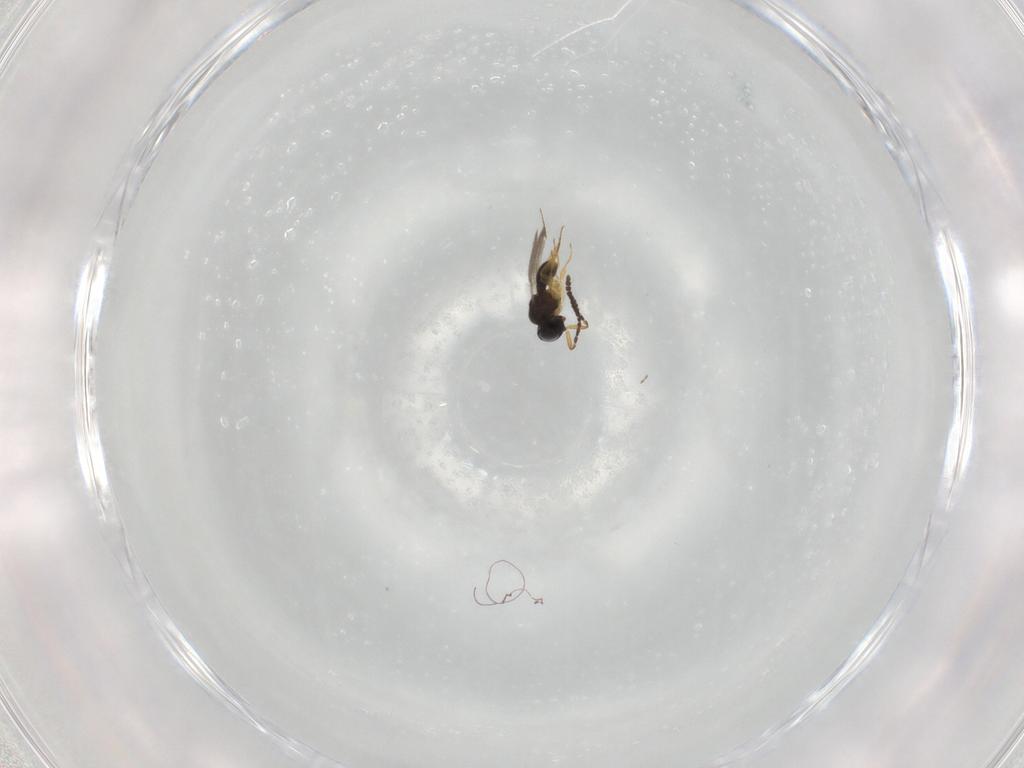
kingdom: Animalia
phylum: Arthropoda
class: Insecta
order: Hymenoptera
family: Scelionidae
